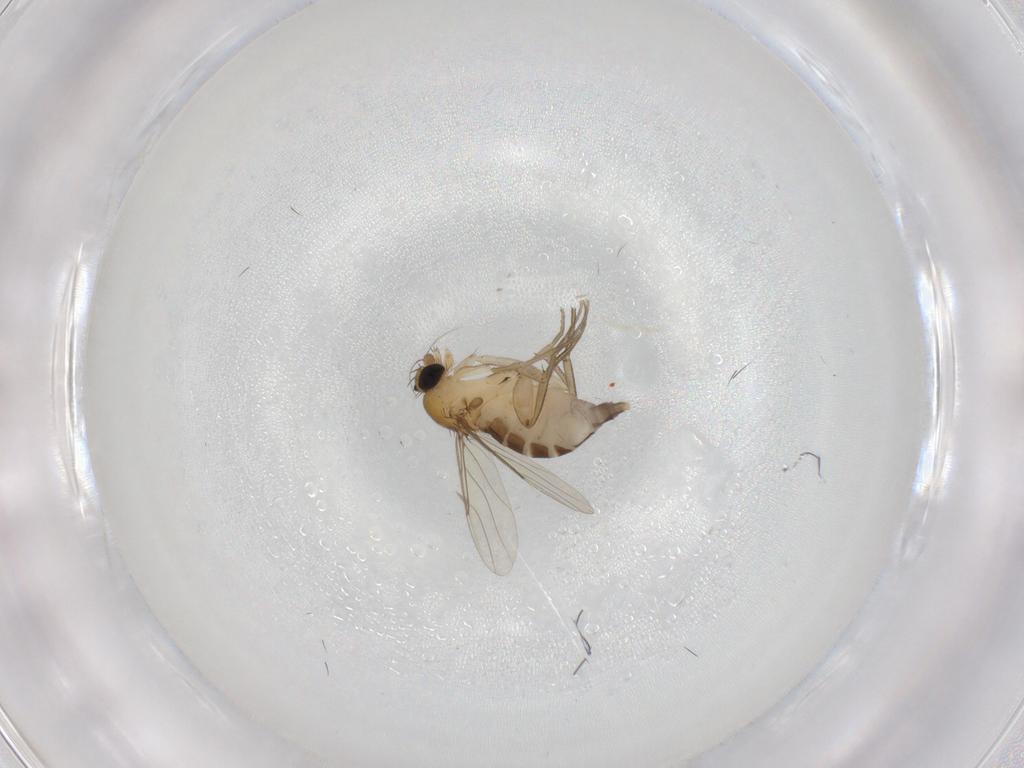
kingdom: Animalia
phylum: Arthropoda
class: Insecta
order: Diptera
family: Phoridae
